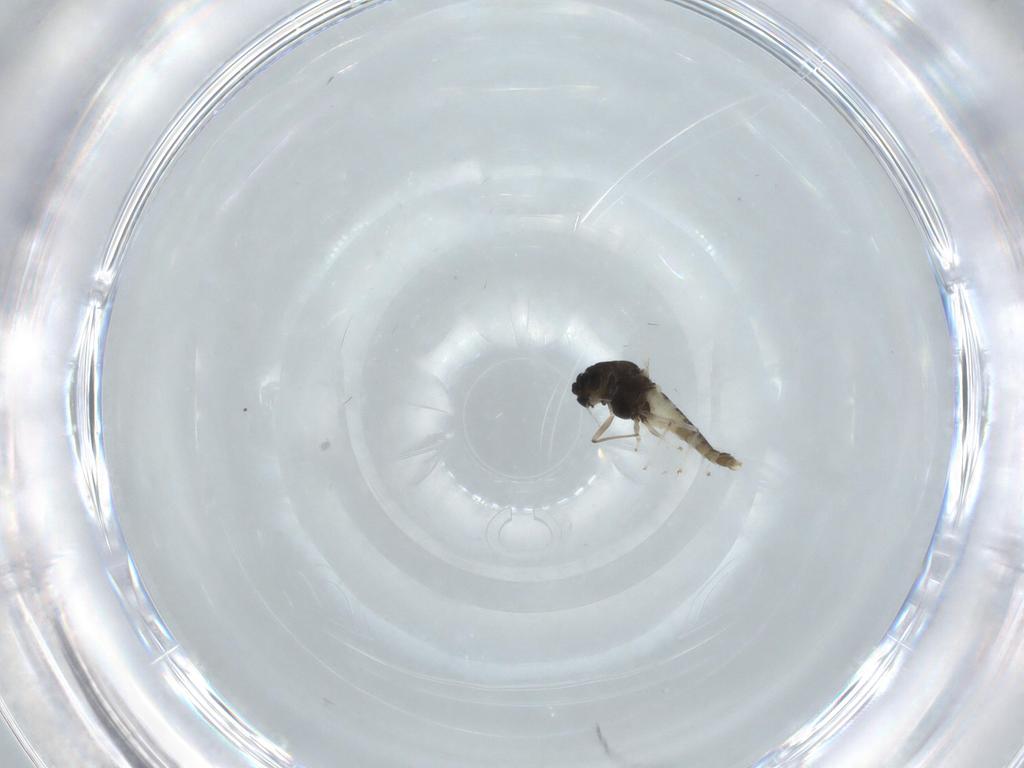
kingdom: Animalia
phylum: Arthropoda
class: Insecta
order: Diptera
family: Chironomidae
